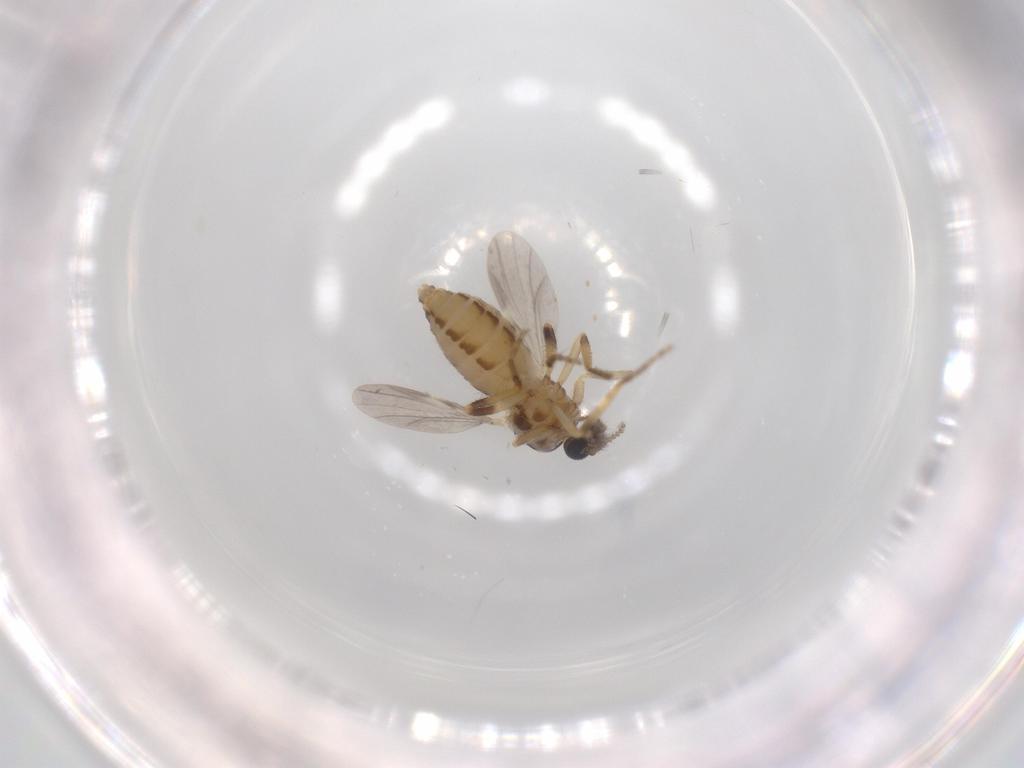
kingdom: Animalia
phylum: Arthropoda
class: Insecta
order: Diptera
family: Ceratopogonidae
